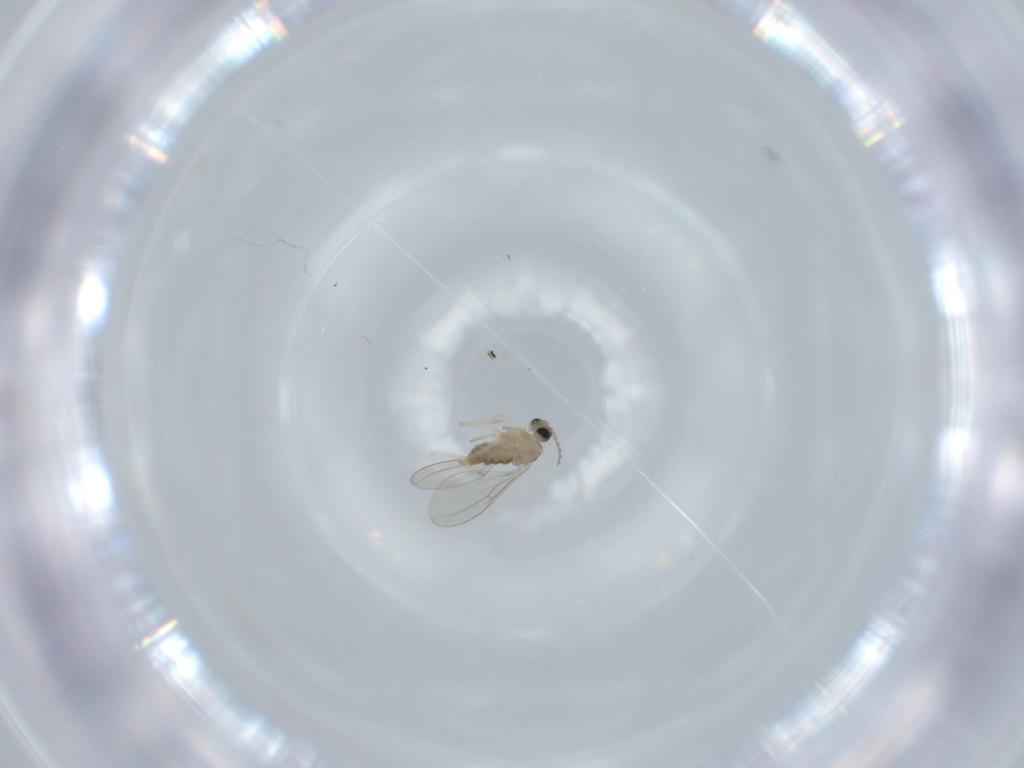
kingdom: Animalia
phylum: Arthropoda
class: Insecta
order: Diptera
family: Cecidomyiidae
